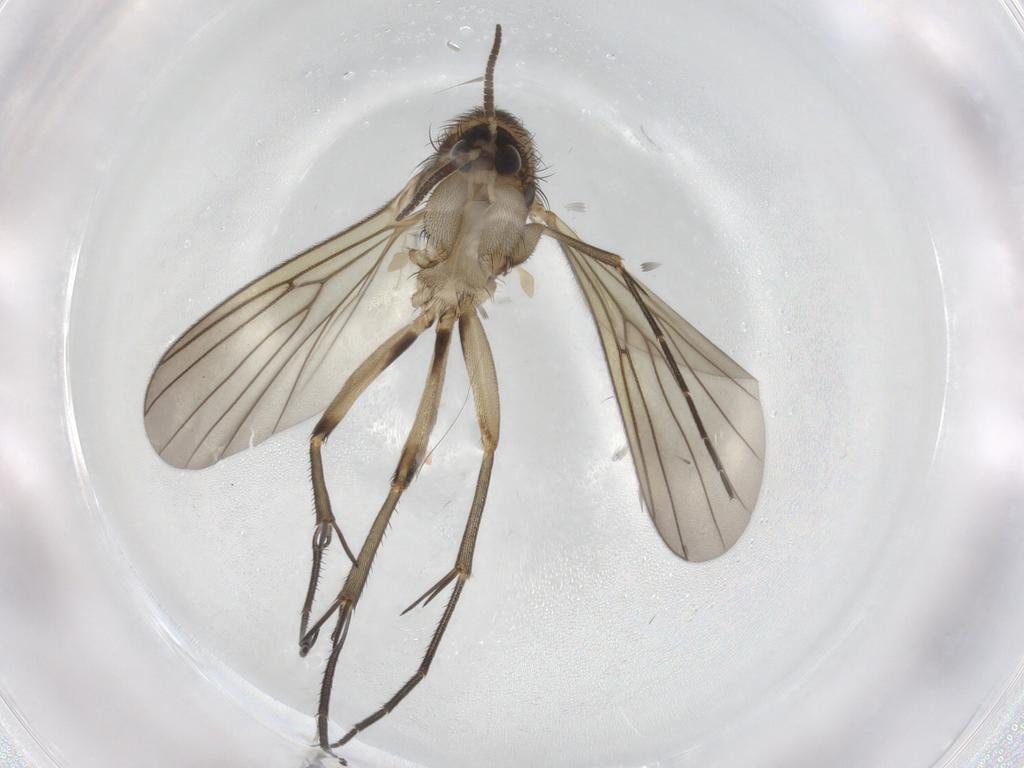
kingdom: Animalia
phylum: Arthropoda
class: Insecta
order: Diptera
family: Mycetophilidae
